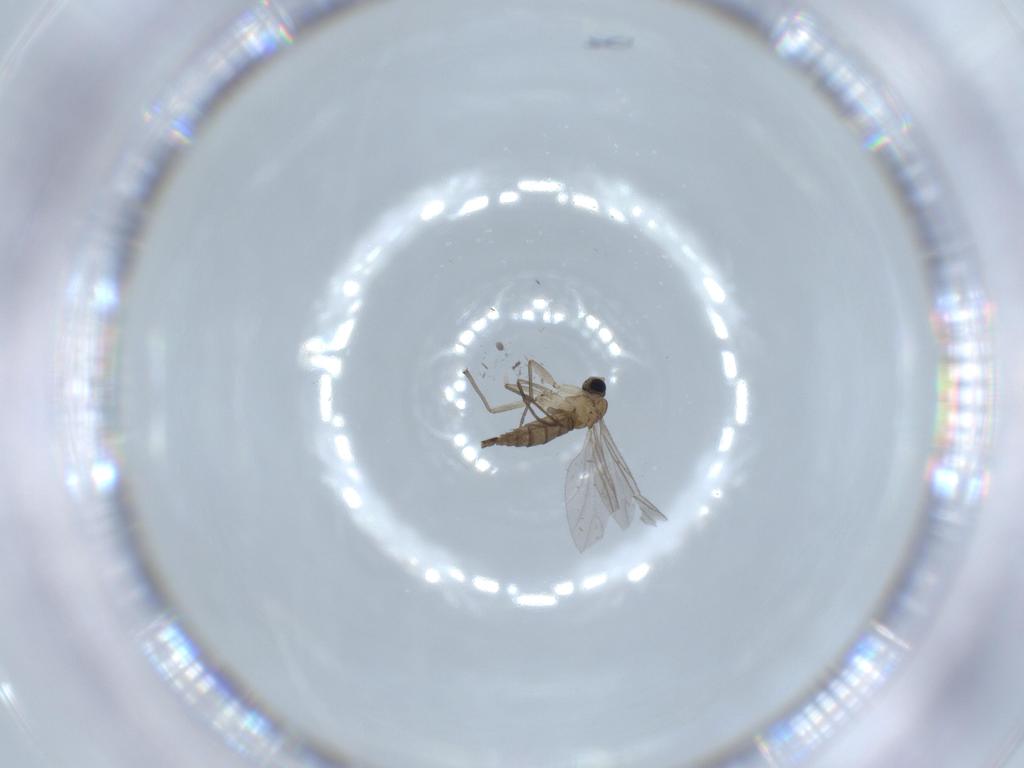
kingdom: Animalia
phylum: Arthropoda
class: Insecta
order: Diptera
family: Sciaridae
